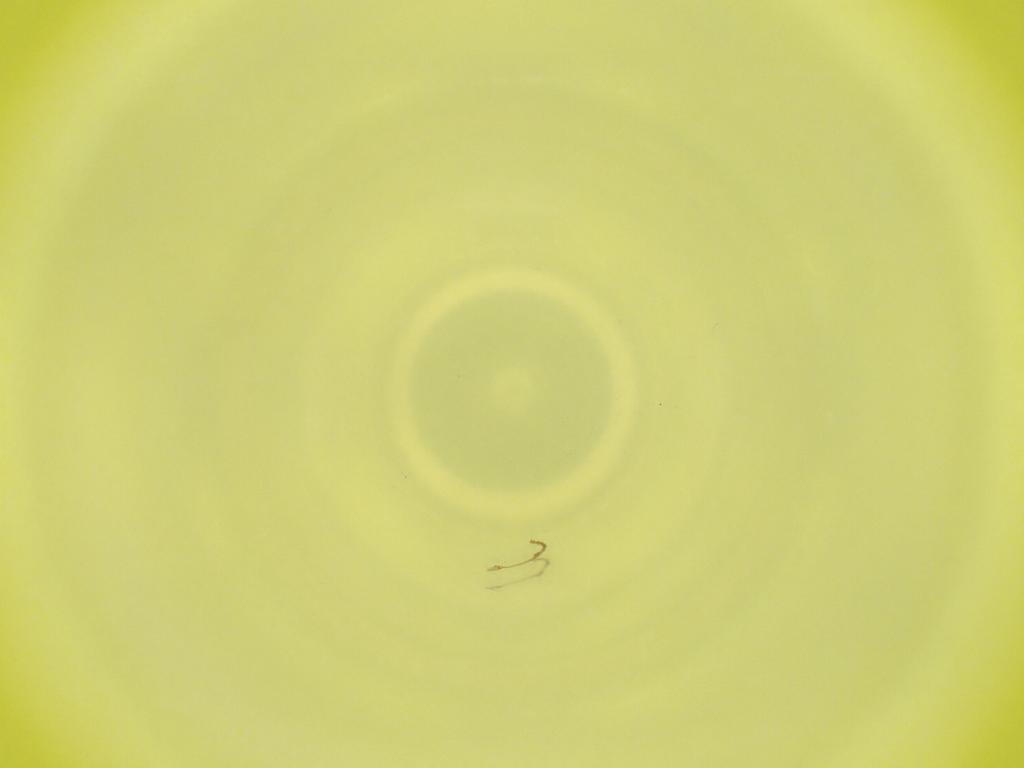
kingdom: Animalia
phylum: Arthropoda
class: Insecta
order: Diptera
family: Cecidomyiidae
